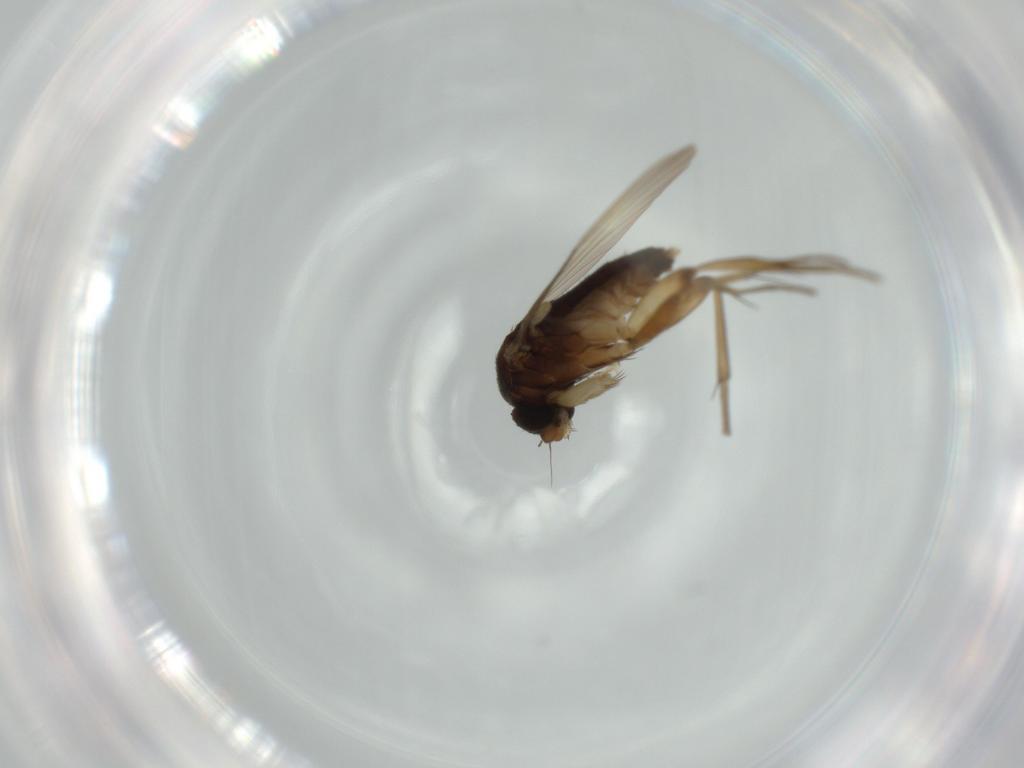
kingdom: Animalia
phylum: Arthropoda
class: Insecta
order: Diptera
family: Phoridae
